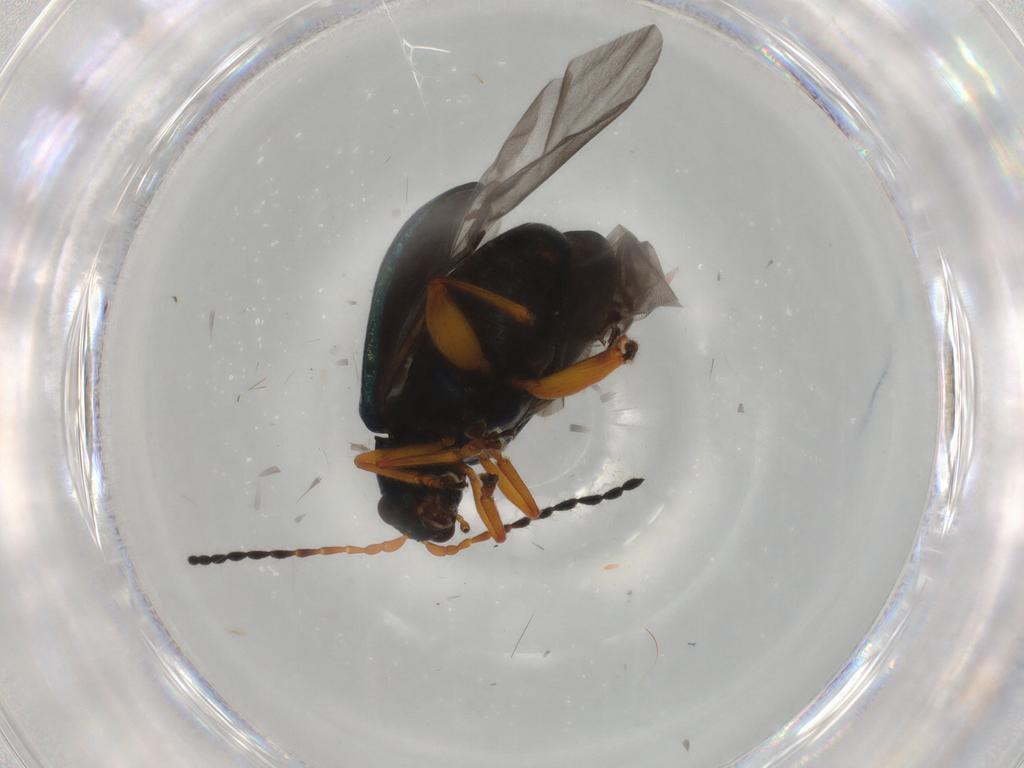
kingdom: Animalia
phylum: Arthropoda
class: Insecta
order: Coleoptera
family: Chrysomelidae
